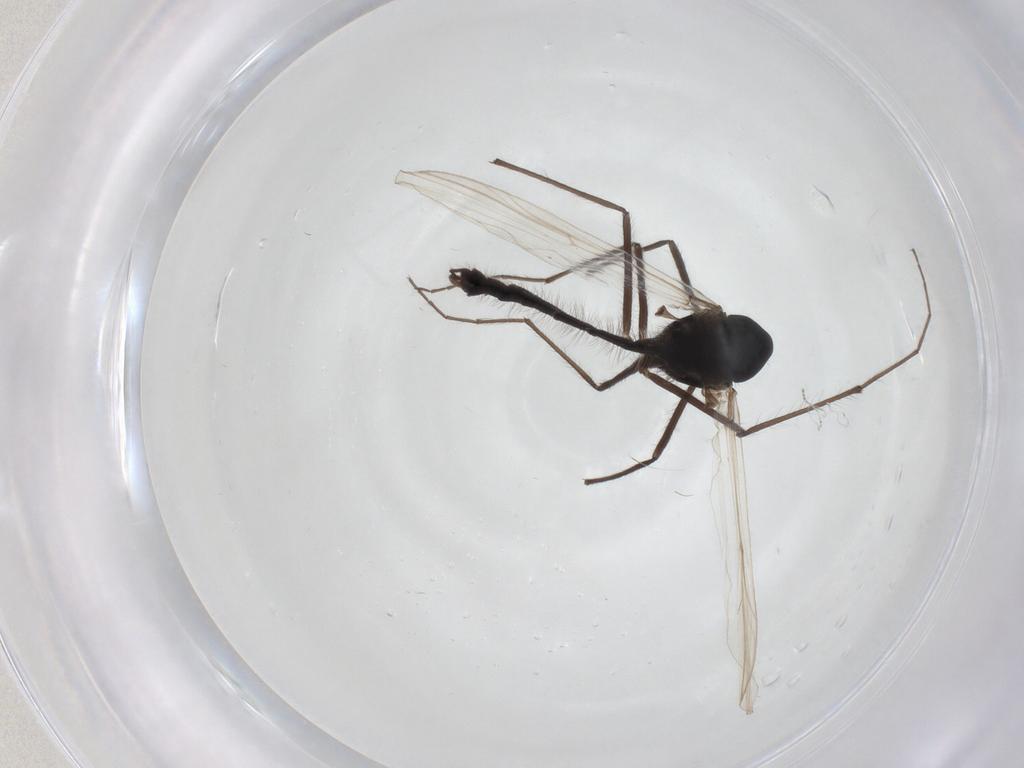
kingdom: Animalia
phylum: Arthropoda
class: Insecta
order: Diptera
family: Chironomidae
